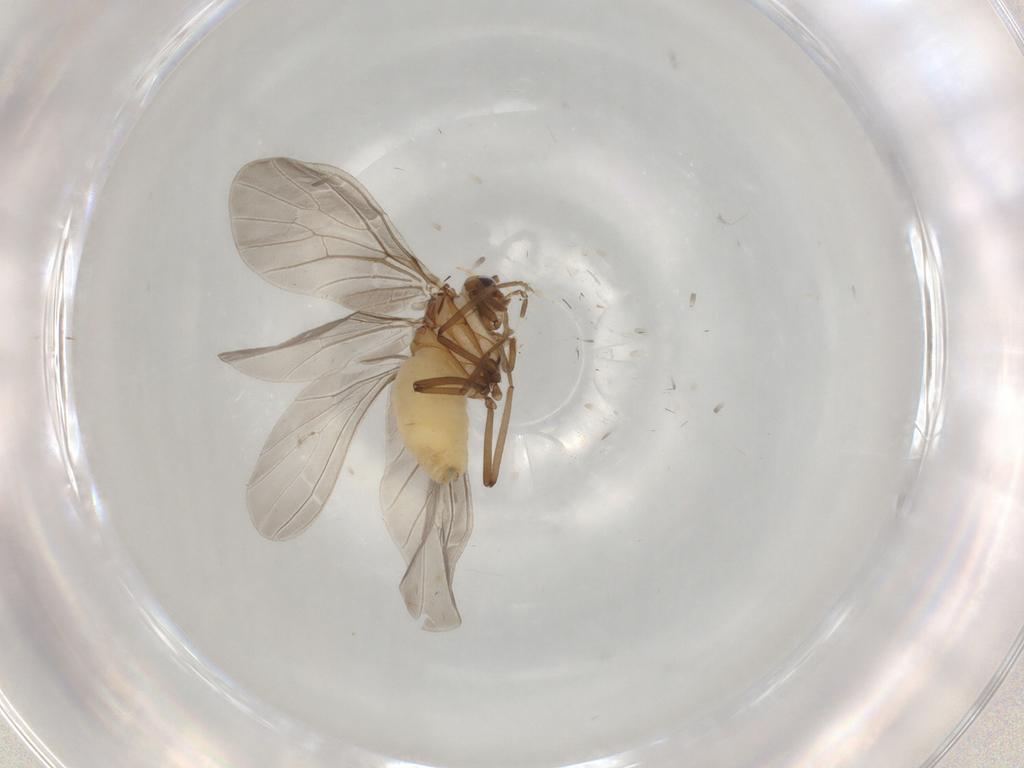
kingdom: Animalia
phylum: Arthropoda
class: Insecta
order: Neuroptera
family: Coniopterygidae
